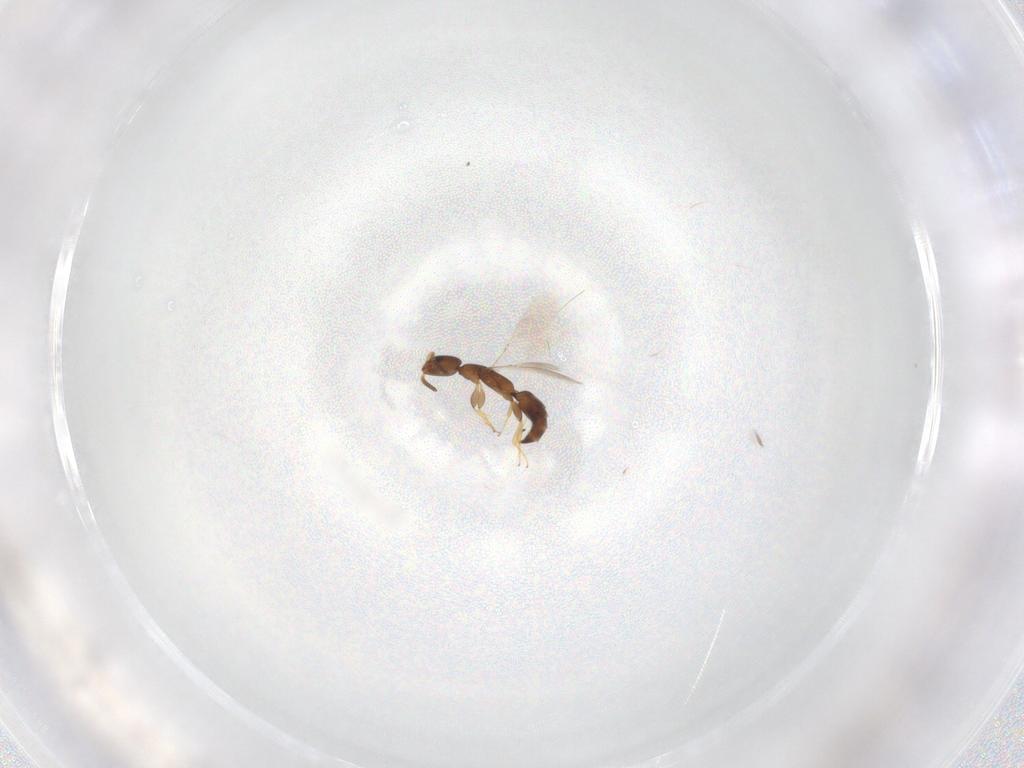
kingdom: Animalia
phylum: Arthropoda
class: Insecta
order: Hymenoptera
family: Bethylidae
